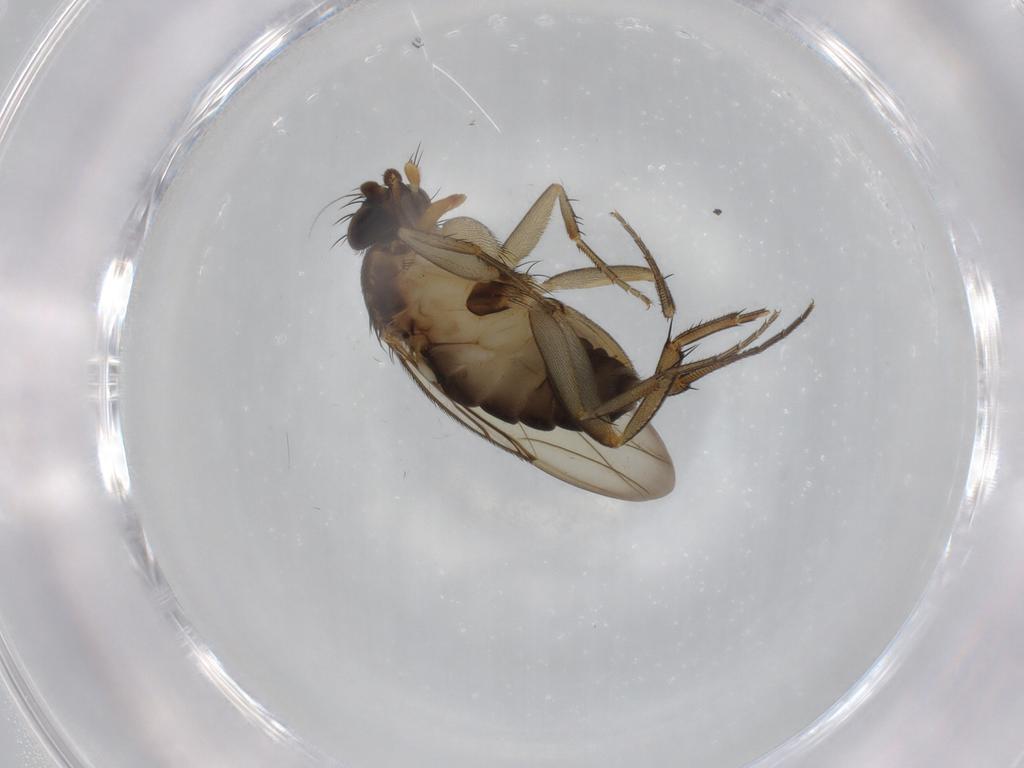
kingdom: Animalia
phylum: Arthropoda
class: Insecta
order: Diptera
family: Phoridae
